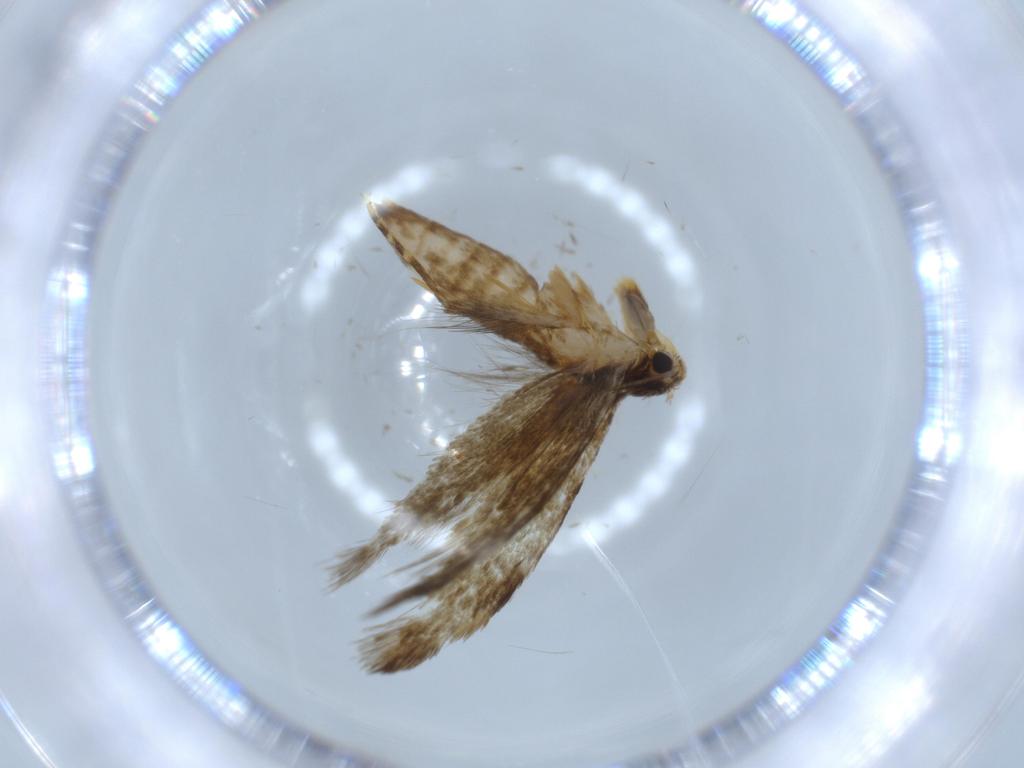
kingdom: Animalia
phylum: Arthropoda
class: Insecta
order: Lepidoptera
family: Tineidae
